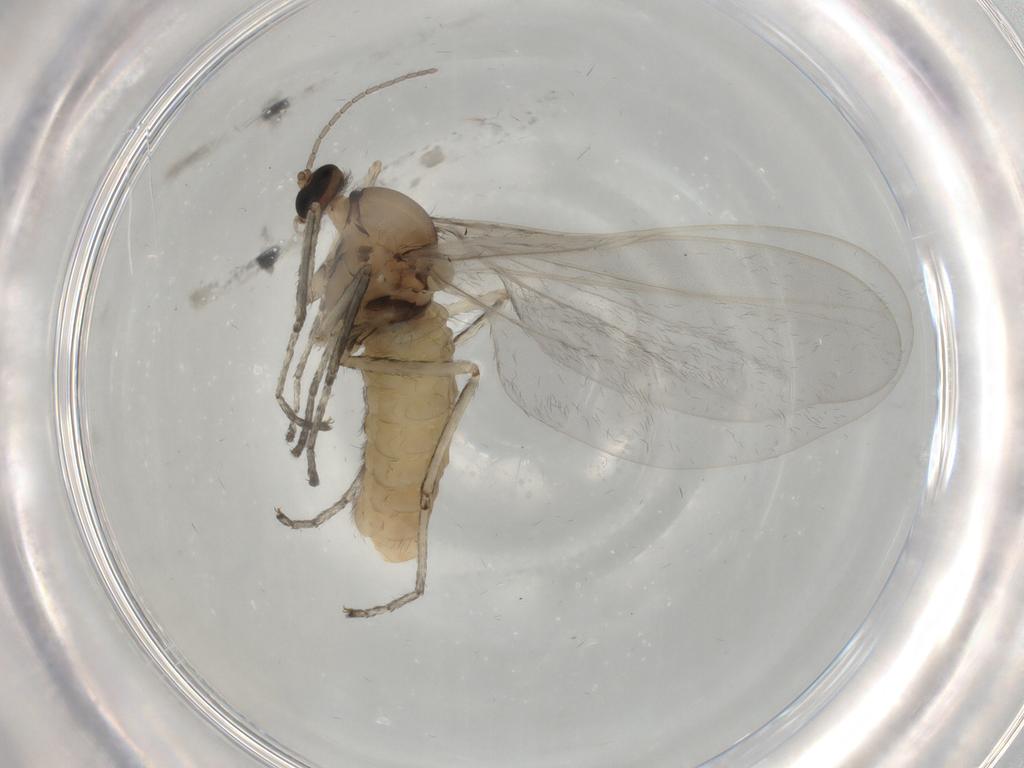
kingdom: Animalia
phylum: Arthropoda
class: Insecta
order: Diptera
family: Cecidomyiidae
